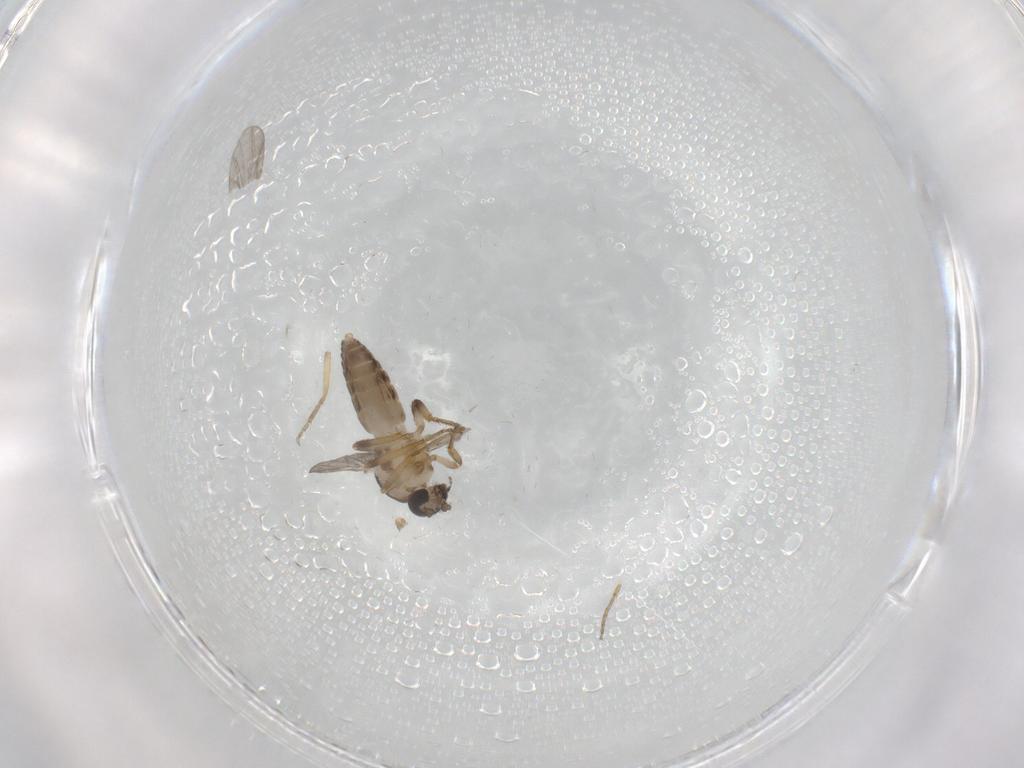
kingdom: Animalia
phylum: Arthropoda
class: Insecta
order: Diptera
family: Ceratopogonidae
